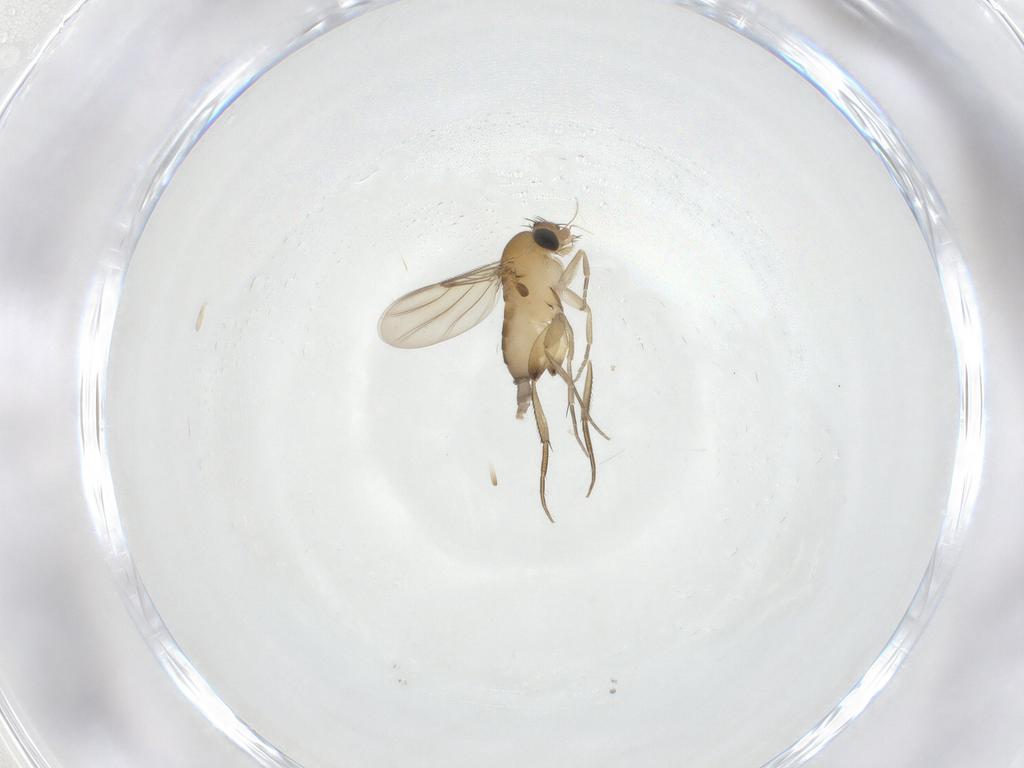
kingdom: Animalia
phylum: Arthropoda
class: Insecta
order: Diptera
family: Phoridae
